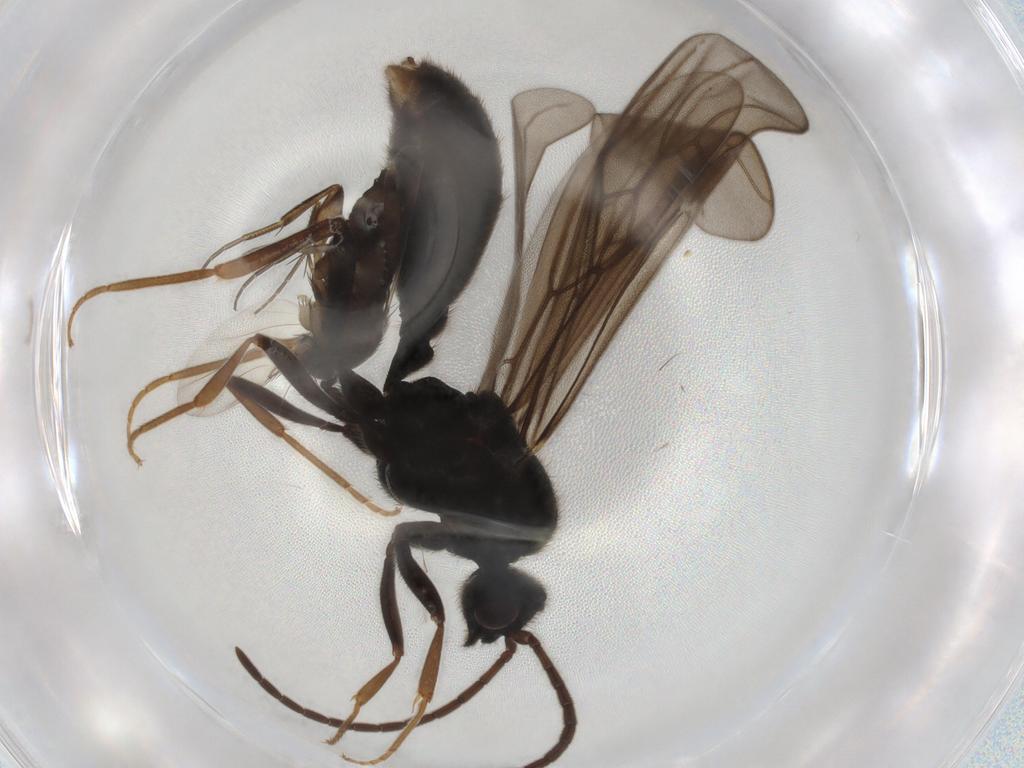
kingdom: Animalia
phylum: Arthropoda
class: Insecta
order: Diptera
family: Phoridae
